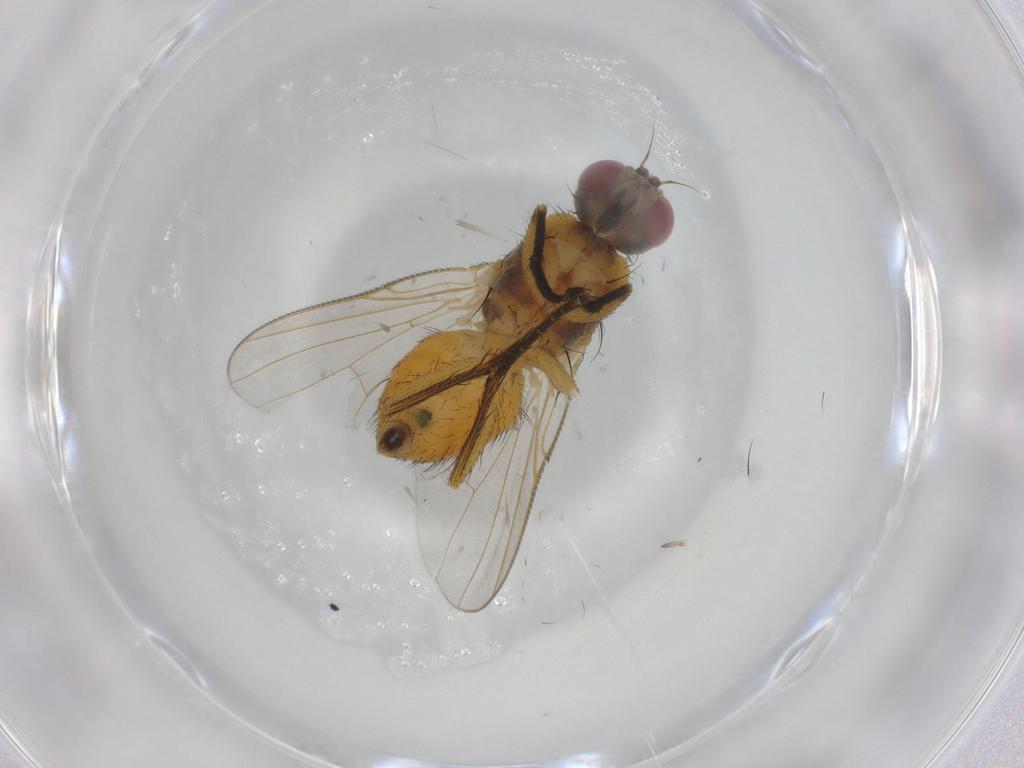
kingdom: Animalia
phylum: Arthropoda
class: Insecta
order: Diptera
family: Muscidae
